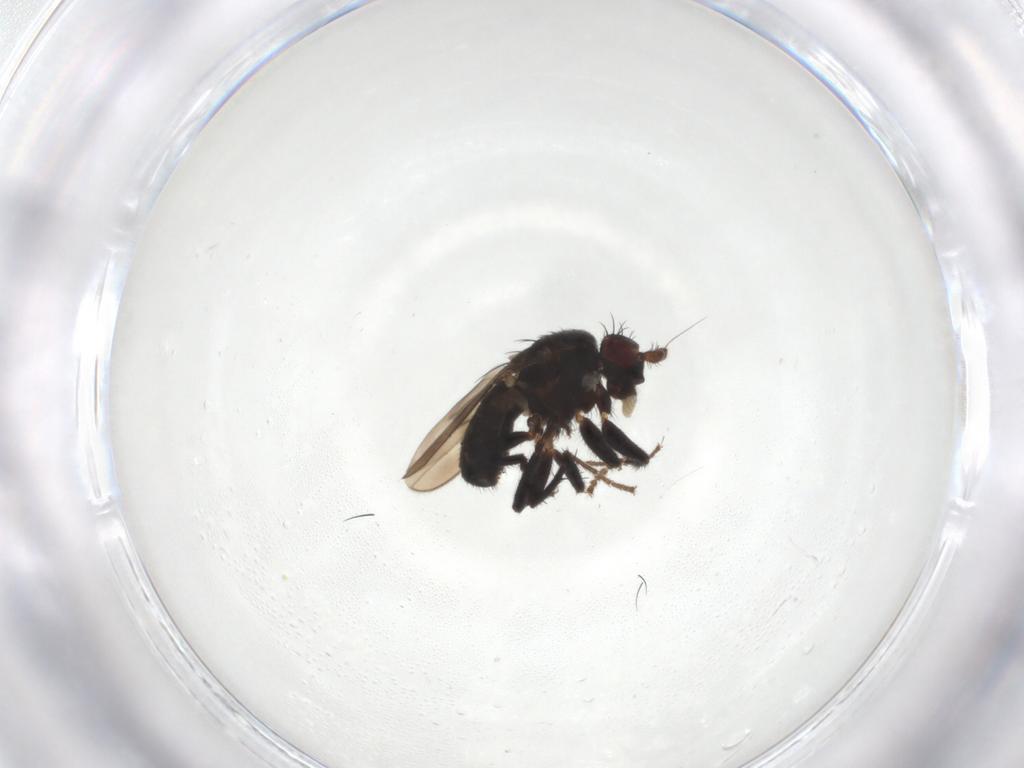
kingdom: Animalia
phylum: Arthropoda
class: Insecta
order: Diptera
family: Sphaeroceridae
